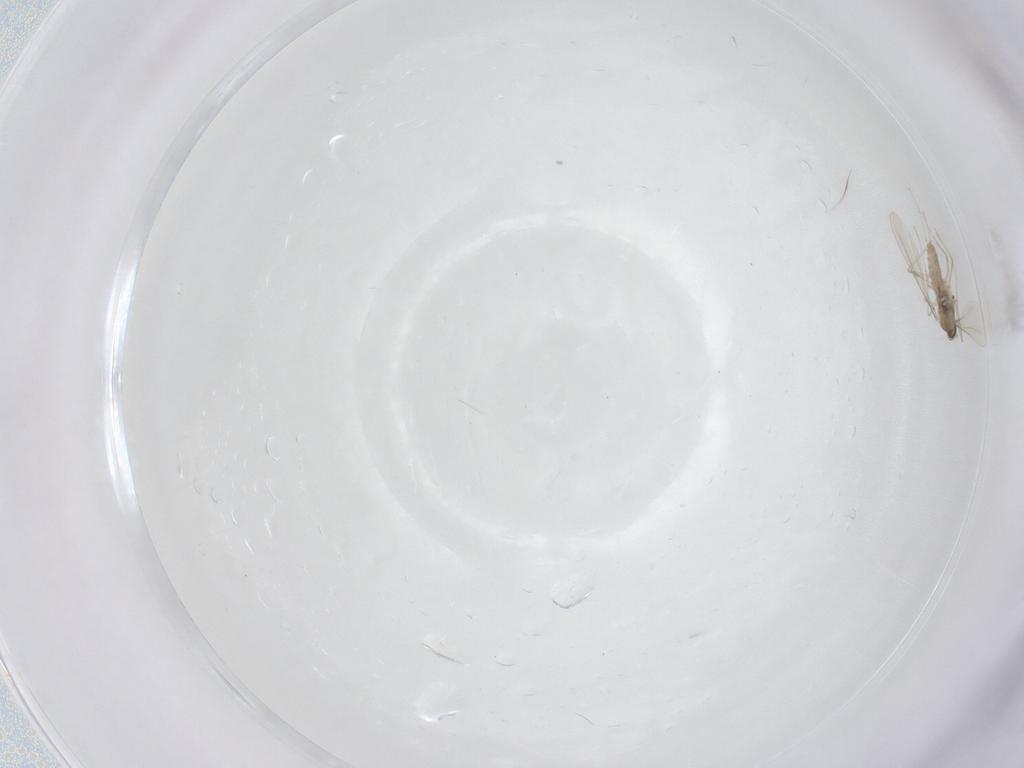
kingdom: Animalia
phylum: Arthropoda
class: Insecta
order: Diptera
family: Cecidomyiidae
